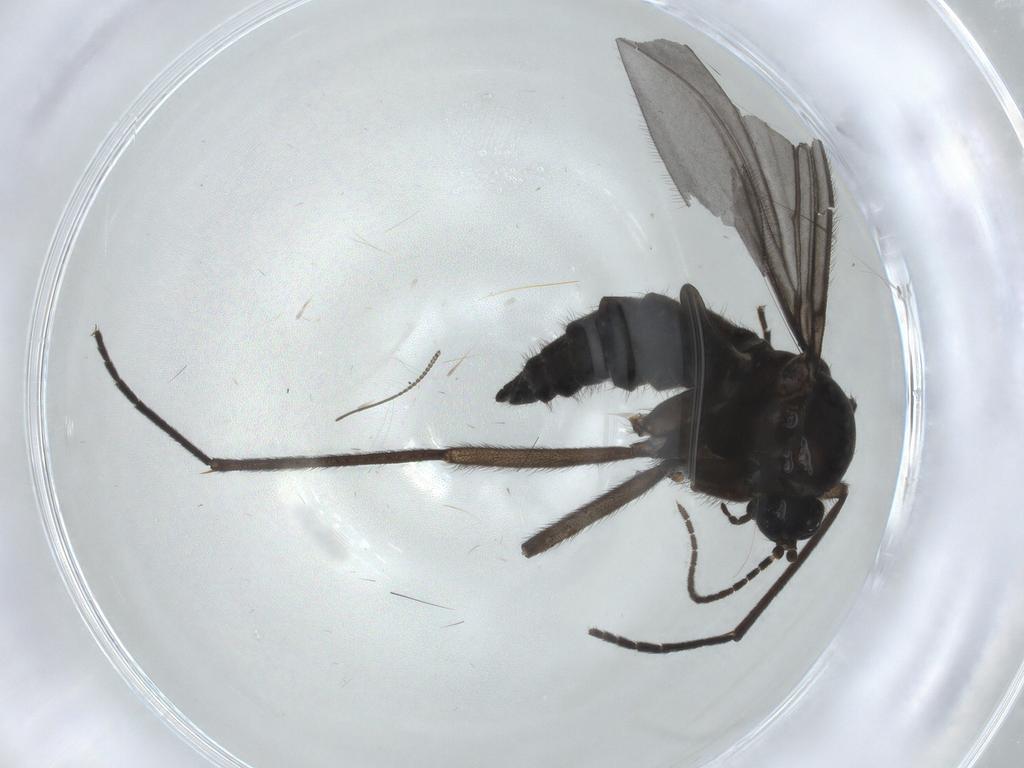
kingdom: Animalia
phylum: Arthropoda
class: Insecta
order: Diptera
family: Sciaridae
